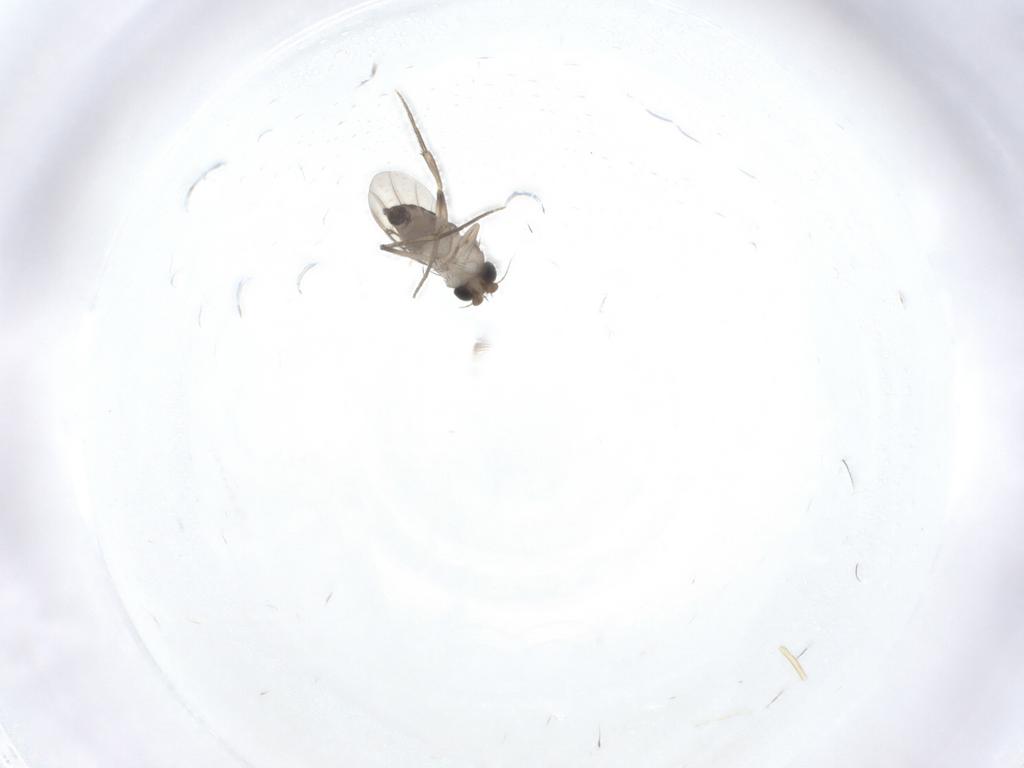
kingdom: Animalia
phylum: Arthropoda
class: Insecta
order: Diptera
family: Phoridae
